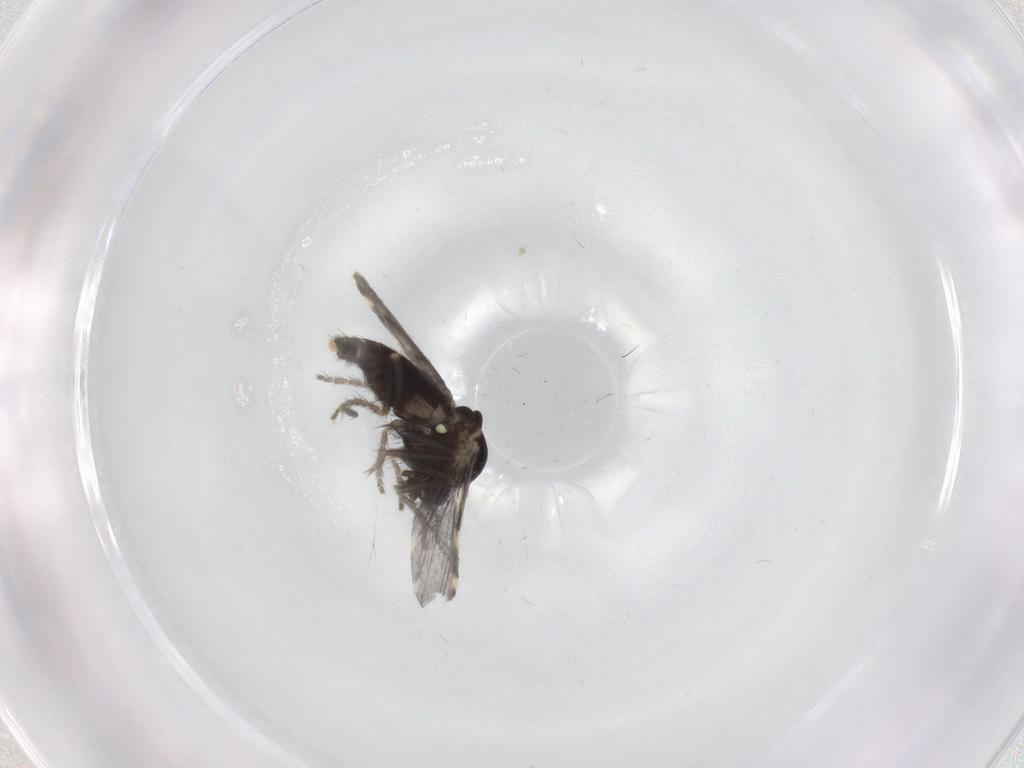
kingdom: Animalia
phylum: Arthropoda
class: Insecta
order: Diptera
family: Ceratopogonidae
